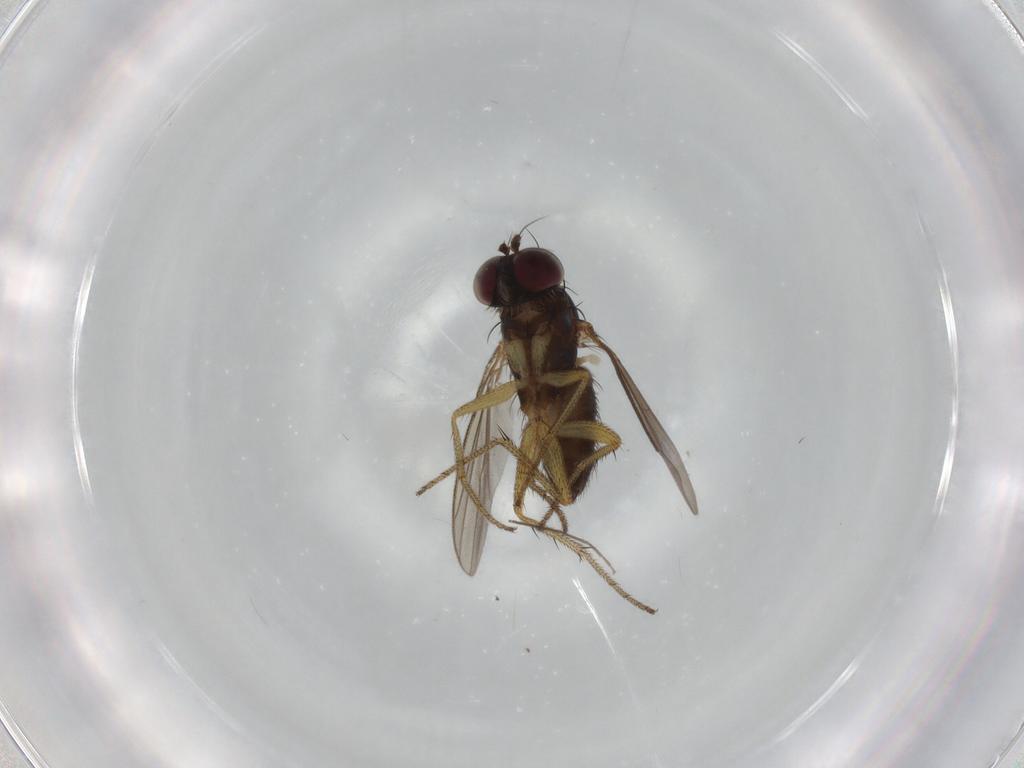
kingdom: Animalia
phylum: Arthropoda
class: Insecta
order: Diptera
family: Dolichopodidae
